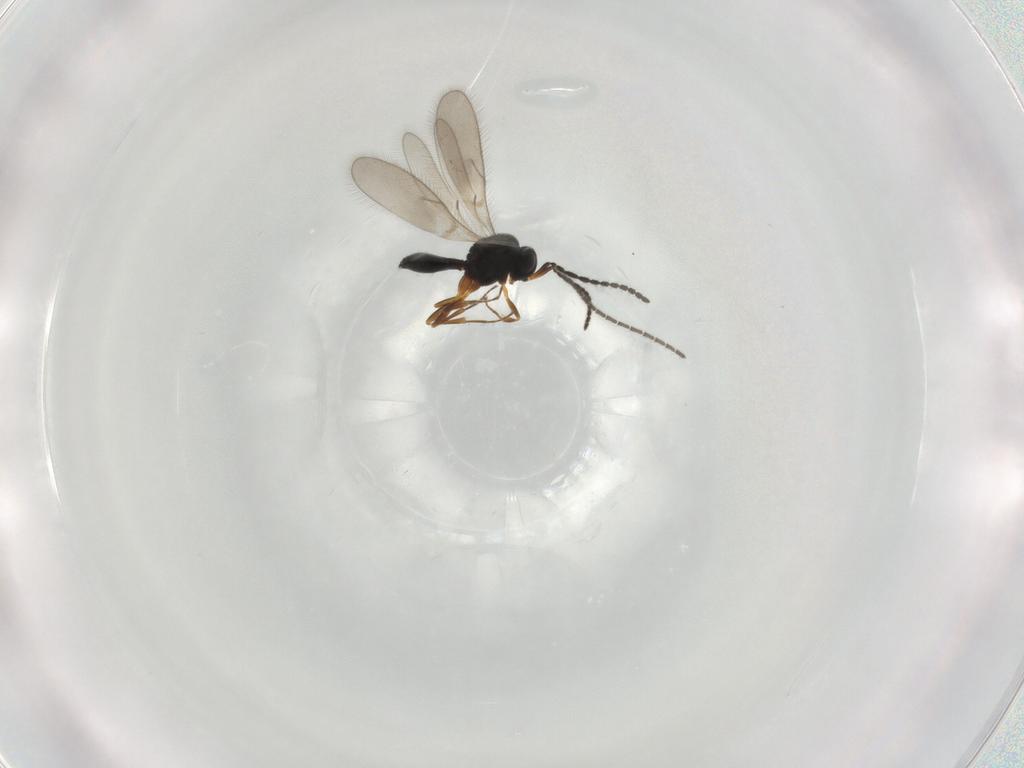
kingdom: Animalia
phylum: Arthropoda
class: Insecta
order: Hymenoptera
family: Scelionidae
